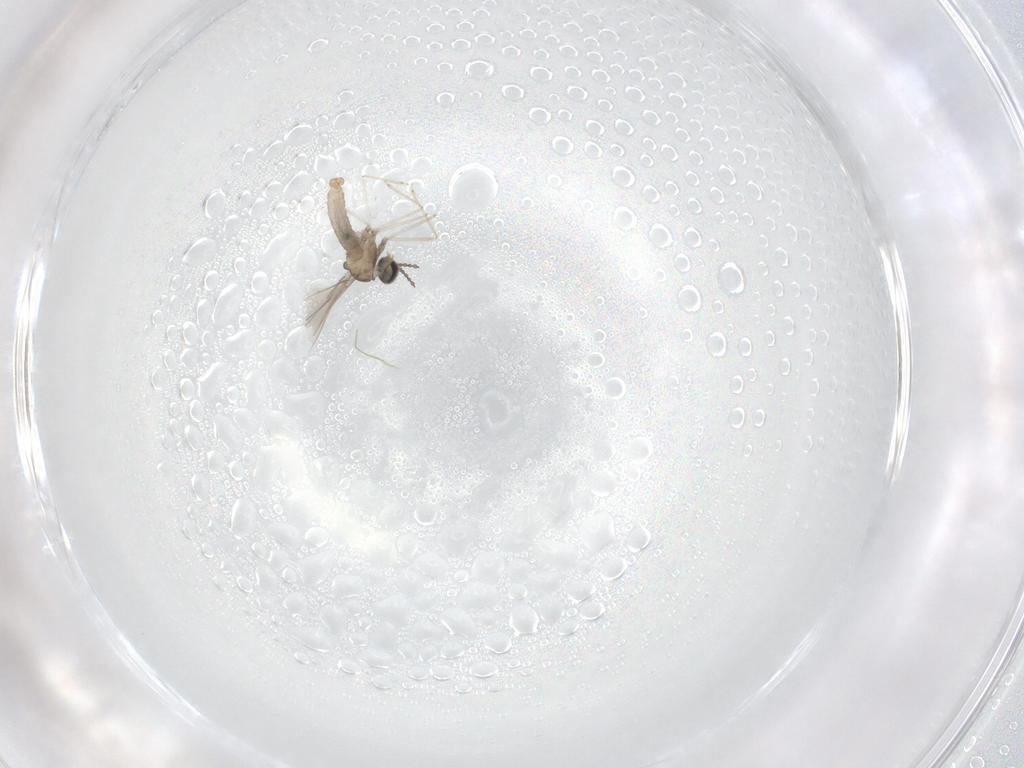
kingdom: Animalia
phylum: Arthropoda
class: Insecta
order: Diptera
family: Cecidomyiidae
